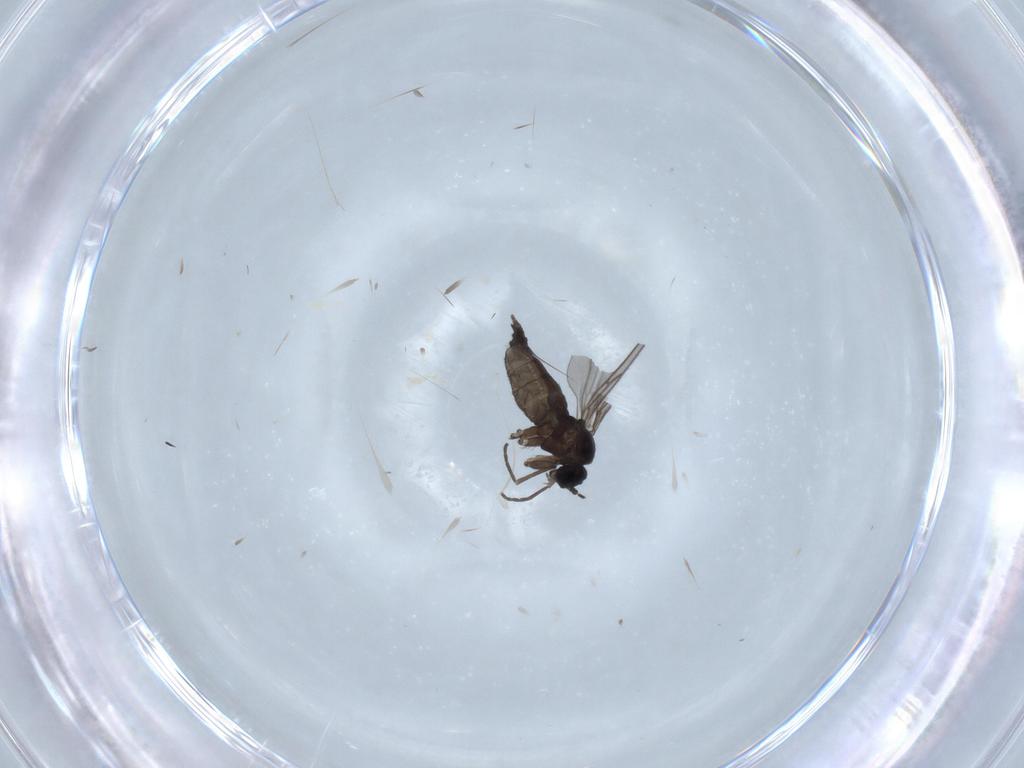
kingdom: Animalia
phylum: Arthropoda
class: Insecta
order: Diptera
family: Sciaridae
